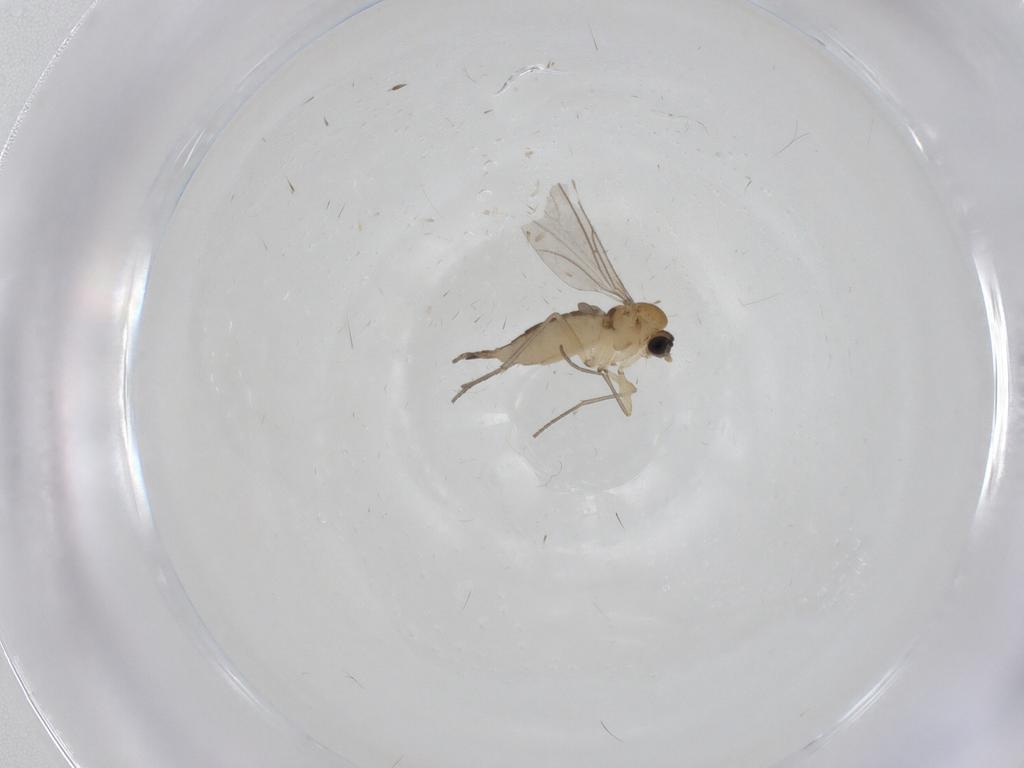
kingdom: Animalia
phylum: Arthropoda
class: Insecta
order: Diptera
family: Sciaridae
